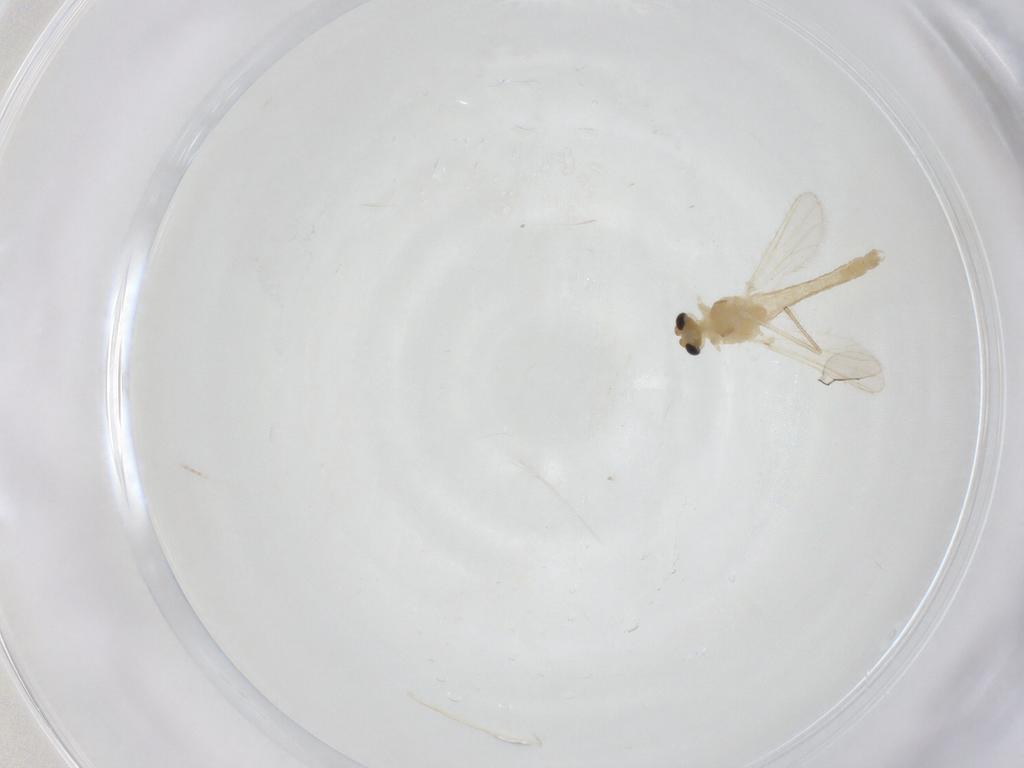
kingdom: Animalia
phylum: Arthropoda
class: Insecta
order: Diptera
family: Chironomidae
